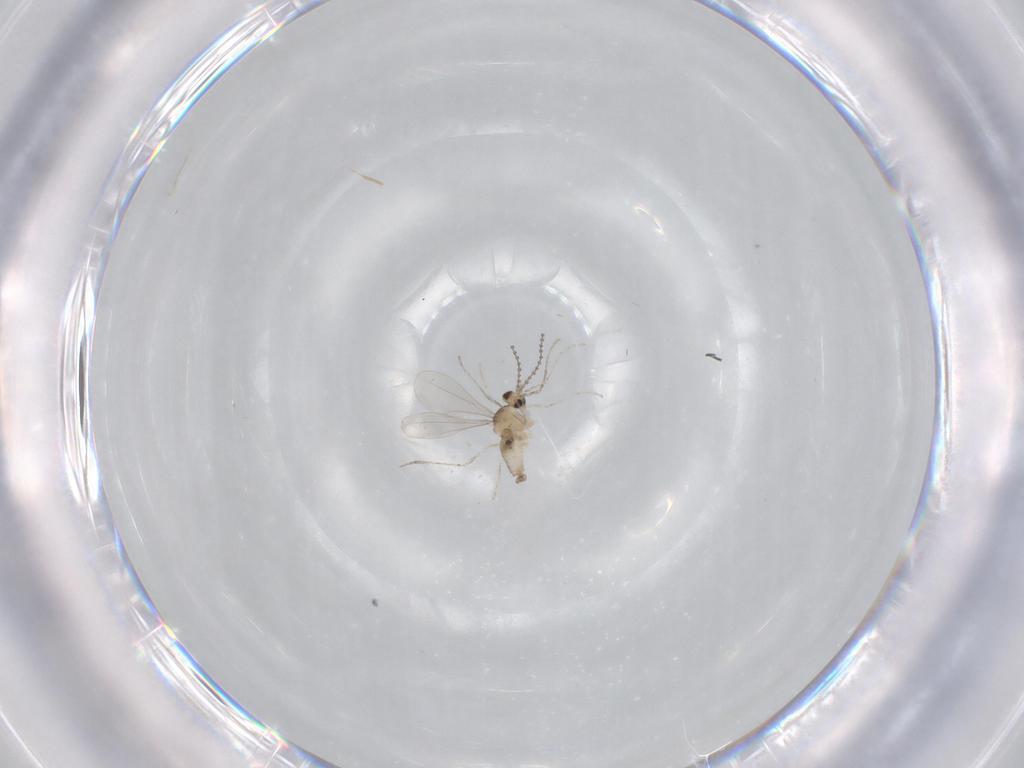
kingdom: Animalia
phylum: Arthropoda
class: Insecta
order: Diptera
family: Cecidomyiidae
